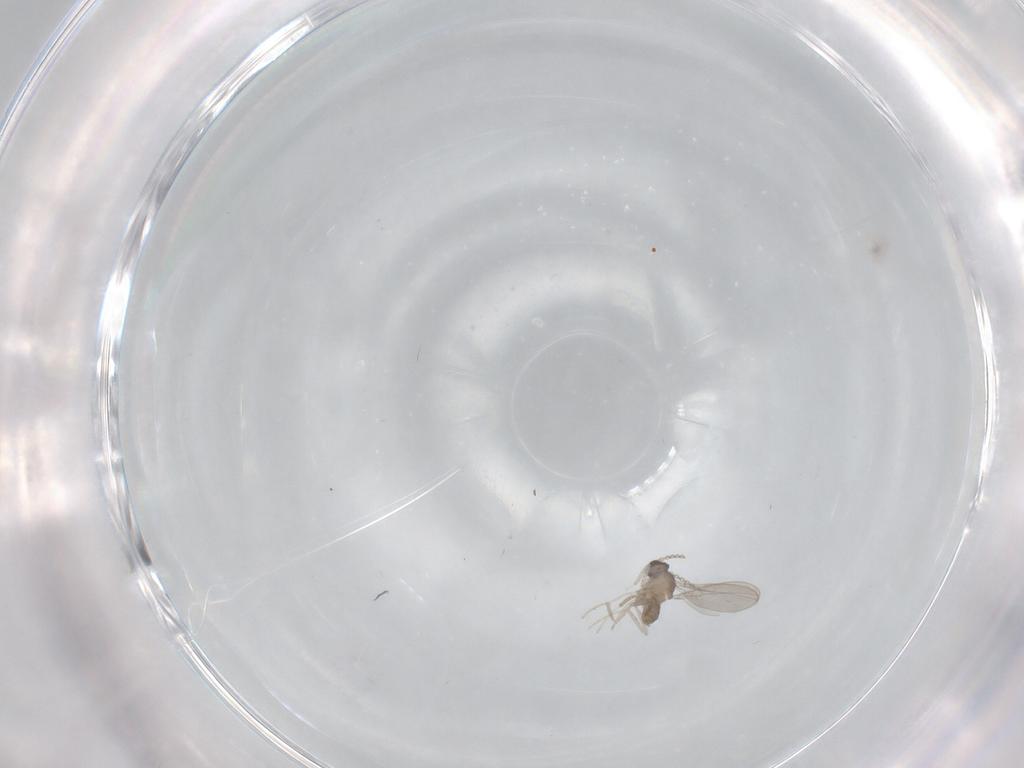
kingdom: Animalia
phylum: Arthropoda
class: Insecta
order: Diptera
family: Cecidomyiidae
